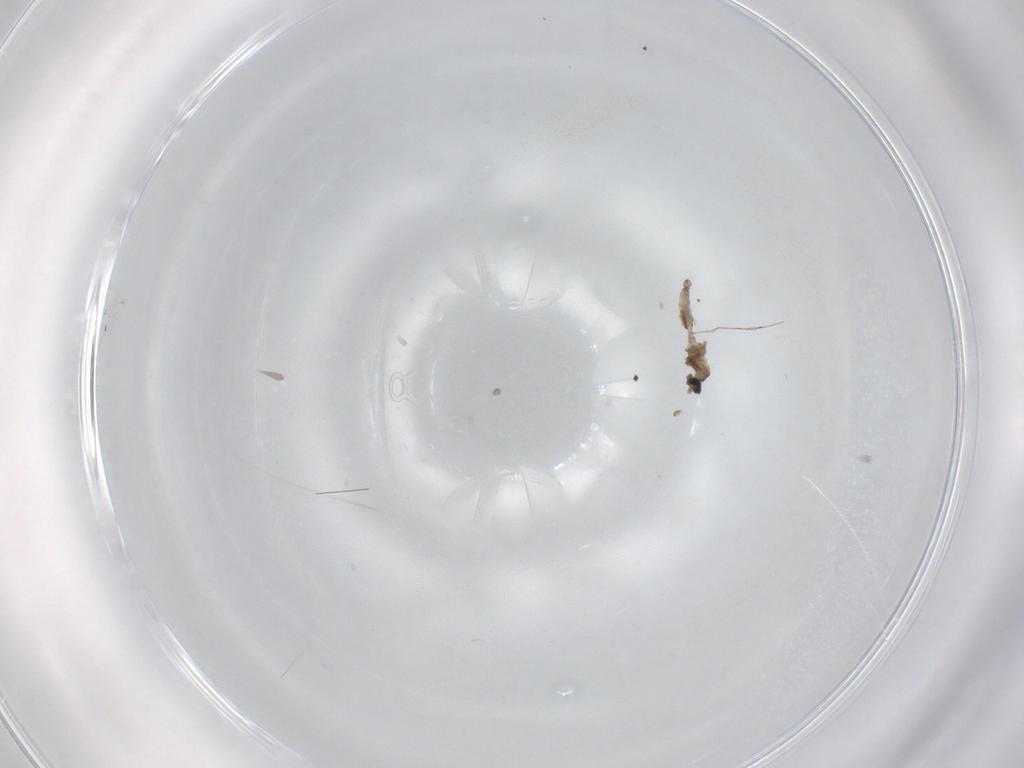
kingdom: Animalia
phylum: Arthropoda
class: Insecta
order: Diptera
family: Cecidomyiidae
